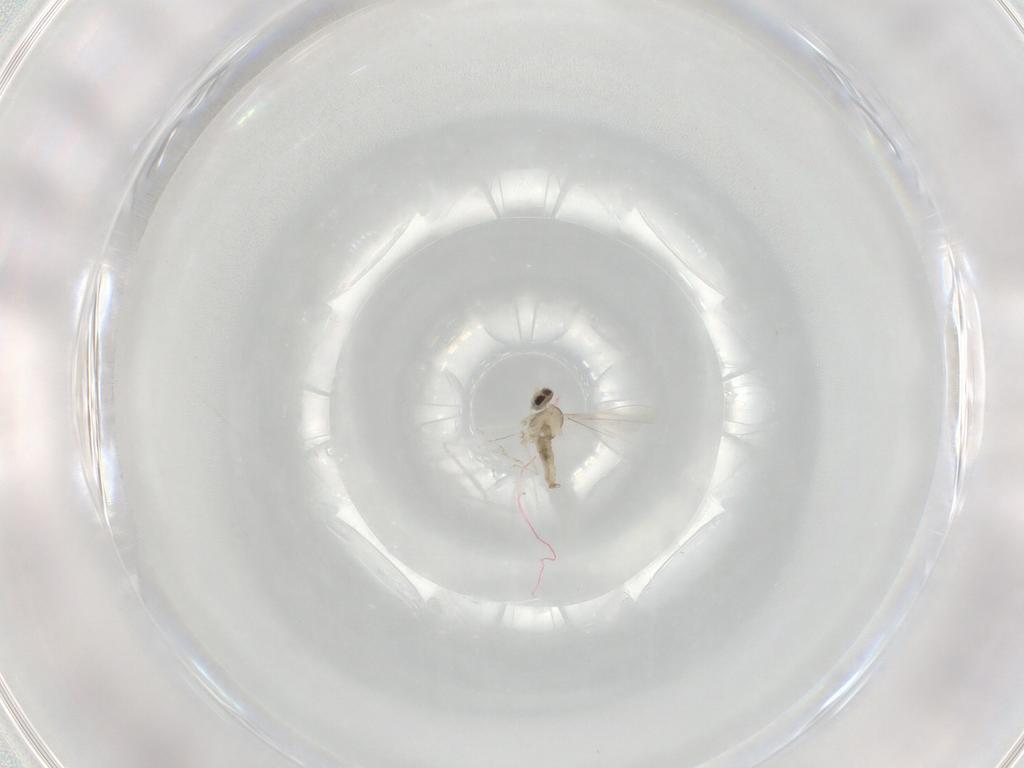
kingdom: Animalia
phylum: Arthropoda
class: Insecta
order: Diptera
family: Cecidomyiidae
